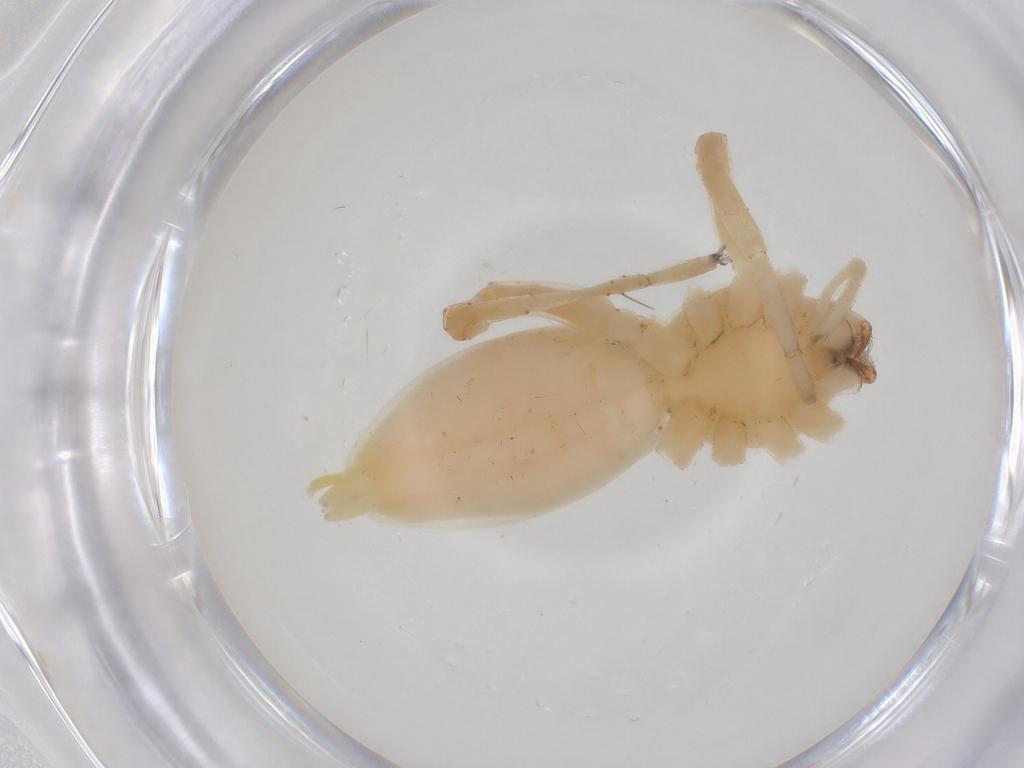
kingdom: Animalia
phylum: Arthropoda
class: Arachnida
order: Araneae
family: Anyphaenidae
